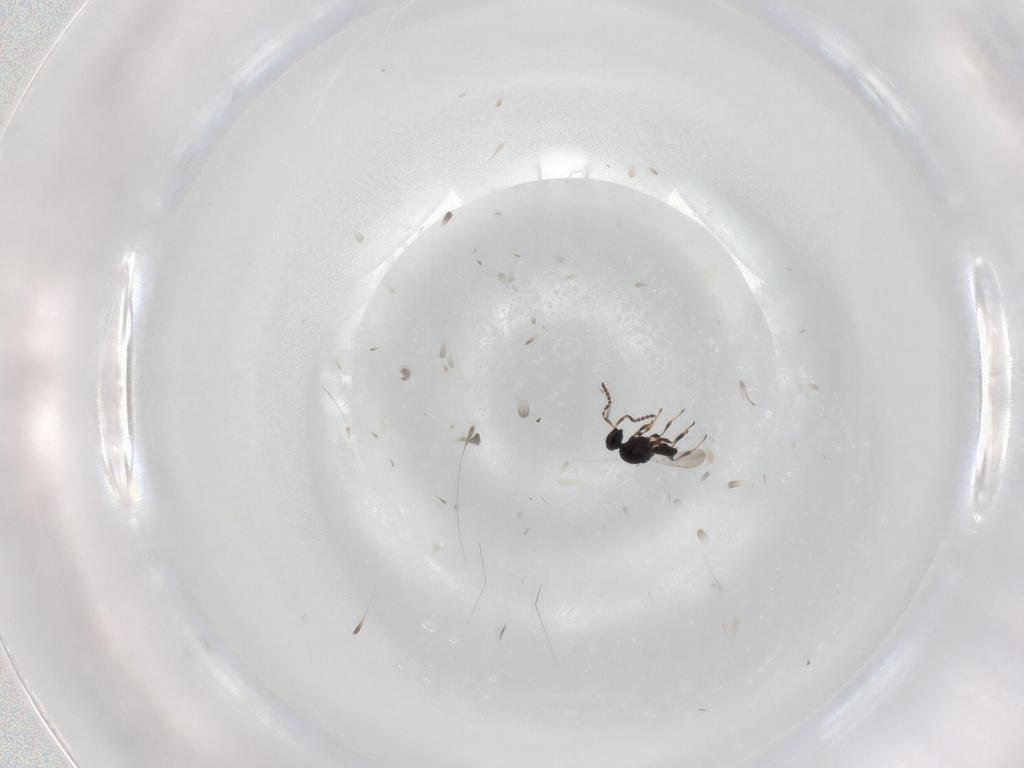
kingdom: Animalia
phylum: Arthropoda
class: Insecta
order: Hymenoptera
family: Platygastridae
